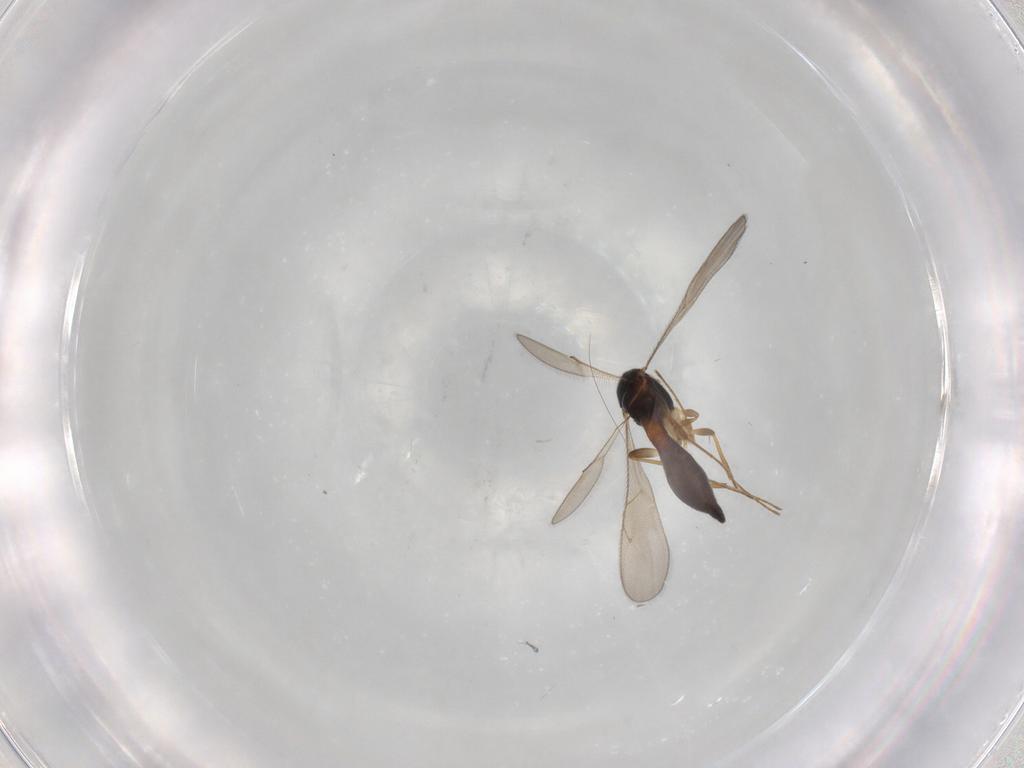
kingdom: Animalia
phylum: Arthropoda
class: Insecta
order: Hymenoptera
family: Scelionidae
